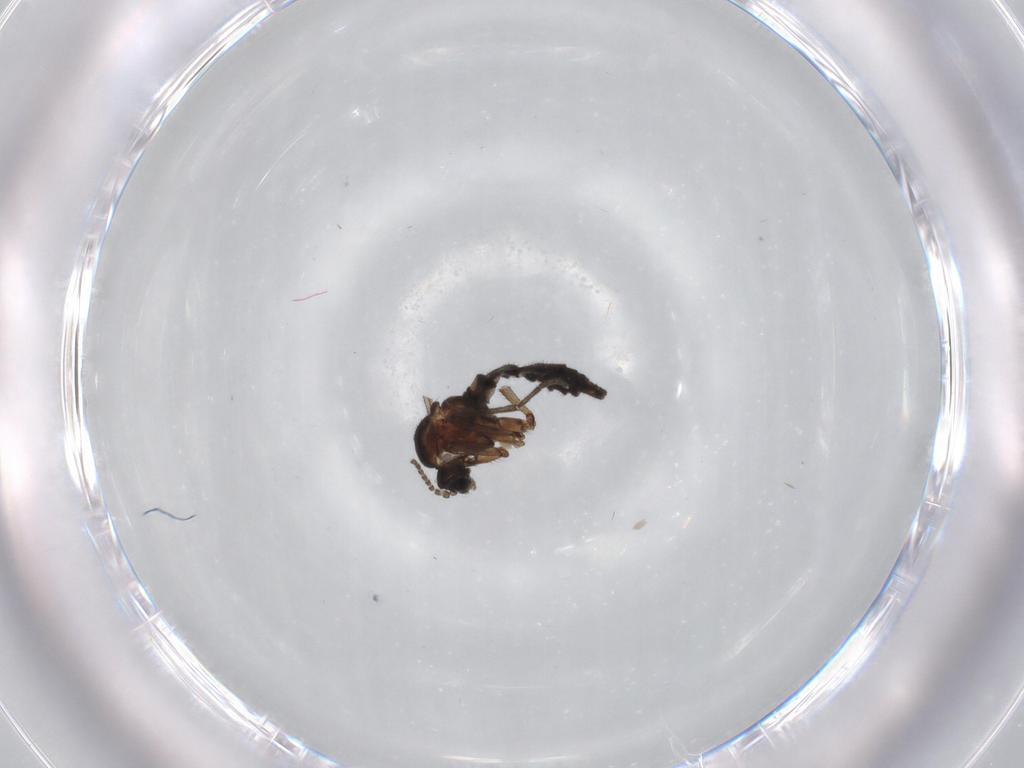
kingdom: Animalia
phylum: Arthropoda
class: Insecta
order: Diptera
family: Sciaridae
